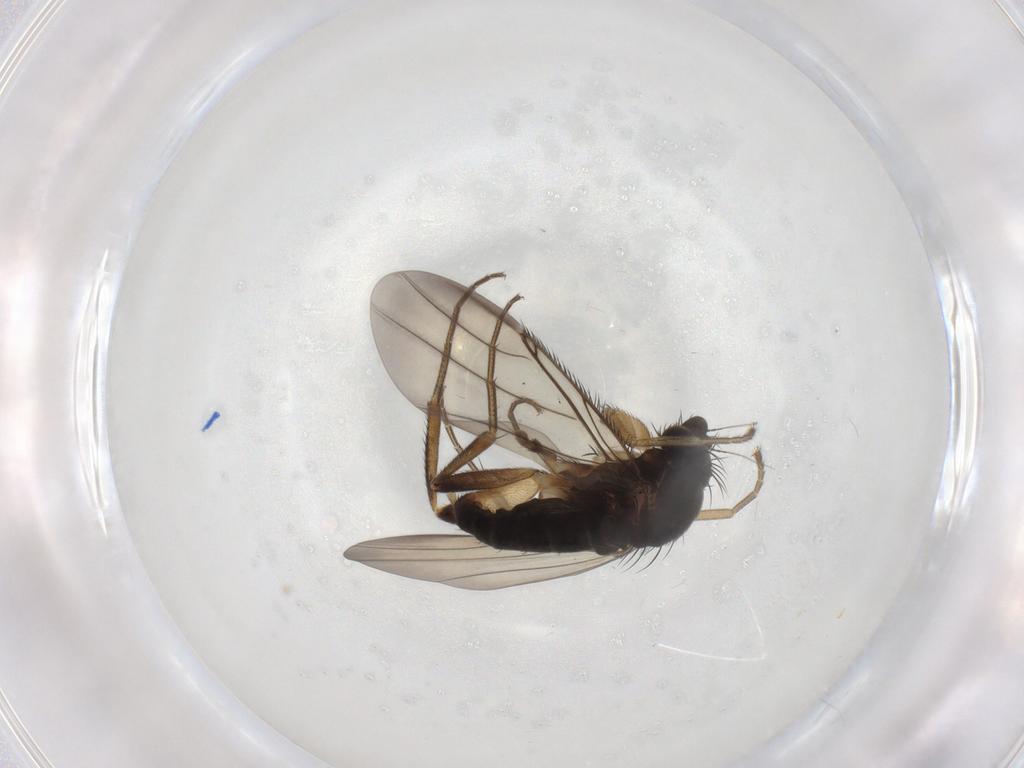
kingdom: Animalia
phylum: Arthropoda
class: Insecta
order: Diptera
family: Phoridae
